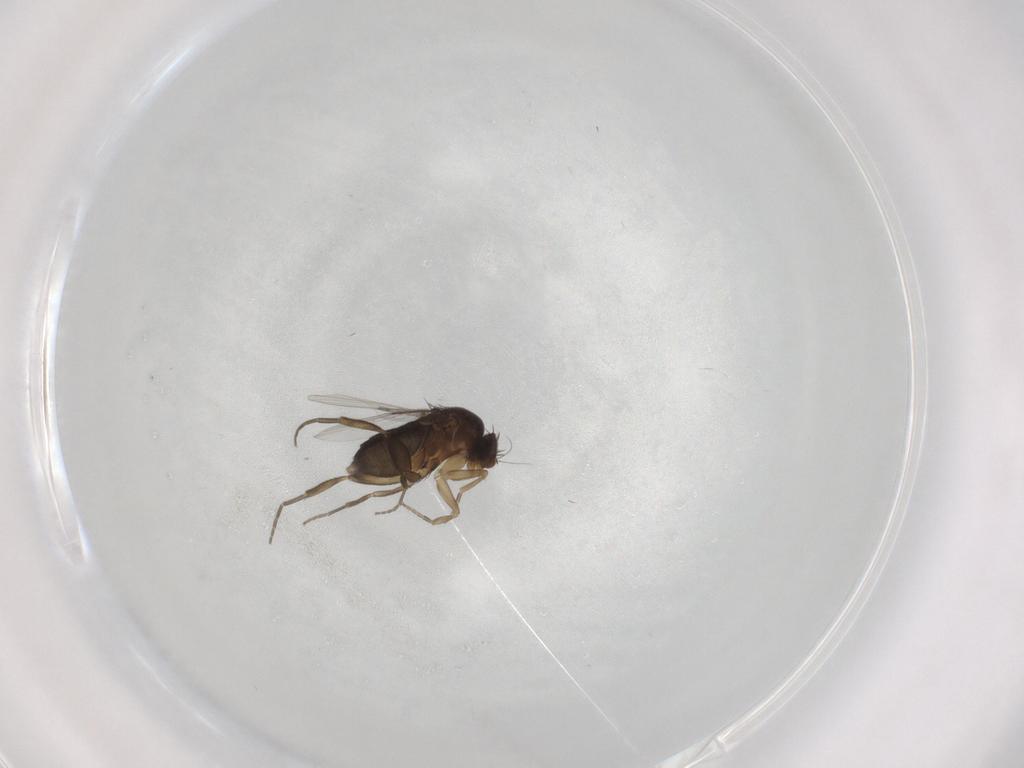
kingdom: Animalia
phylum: Arthropoda
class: Insecta
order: Diptera
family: Phoridae
